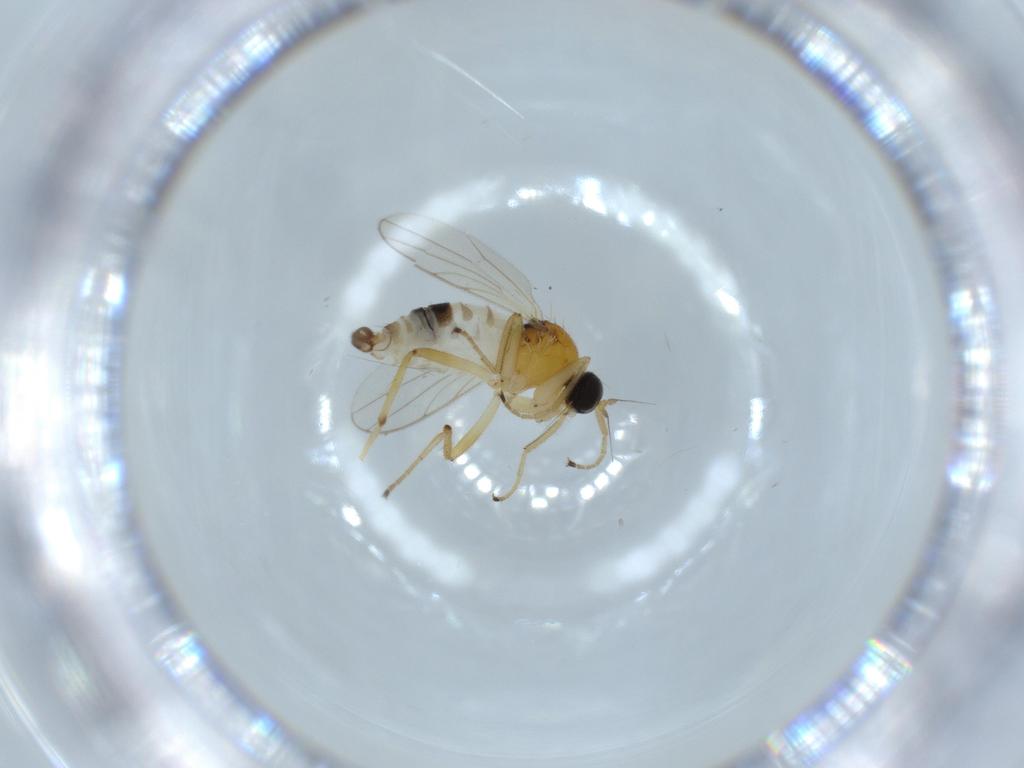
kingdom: Animalia
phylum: Arthropoda
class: Insecta
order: Diptera
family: Hybotidae
